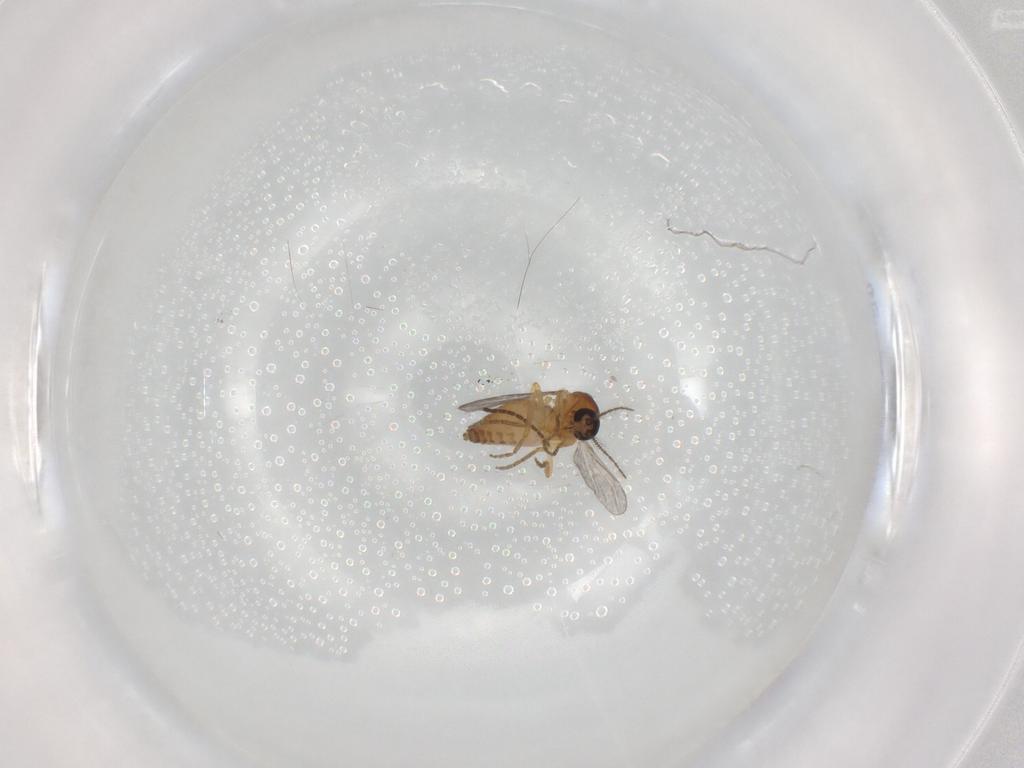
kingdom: Animalia
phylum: Arthropoda
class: Insecta
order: Diptera
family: Sciaridae
